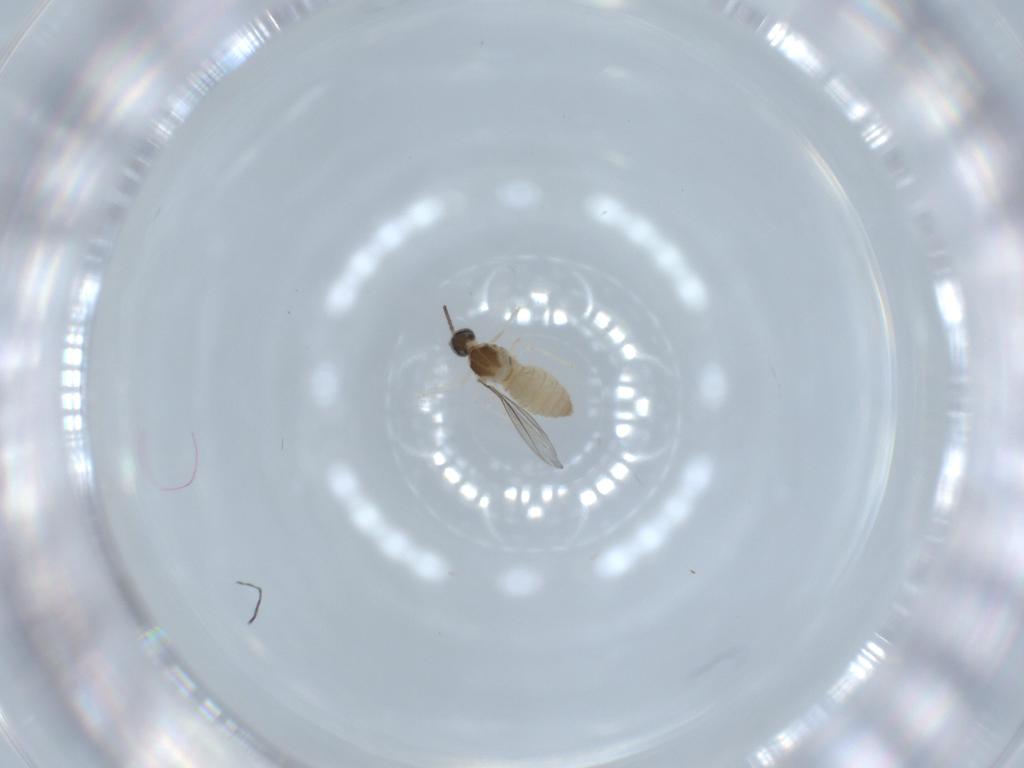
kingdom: Animalia
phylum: Arthropoda
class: Insecta
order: Diptera
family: Cecidomyiidae
